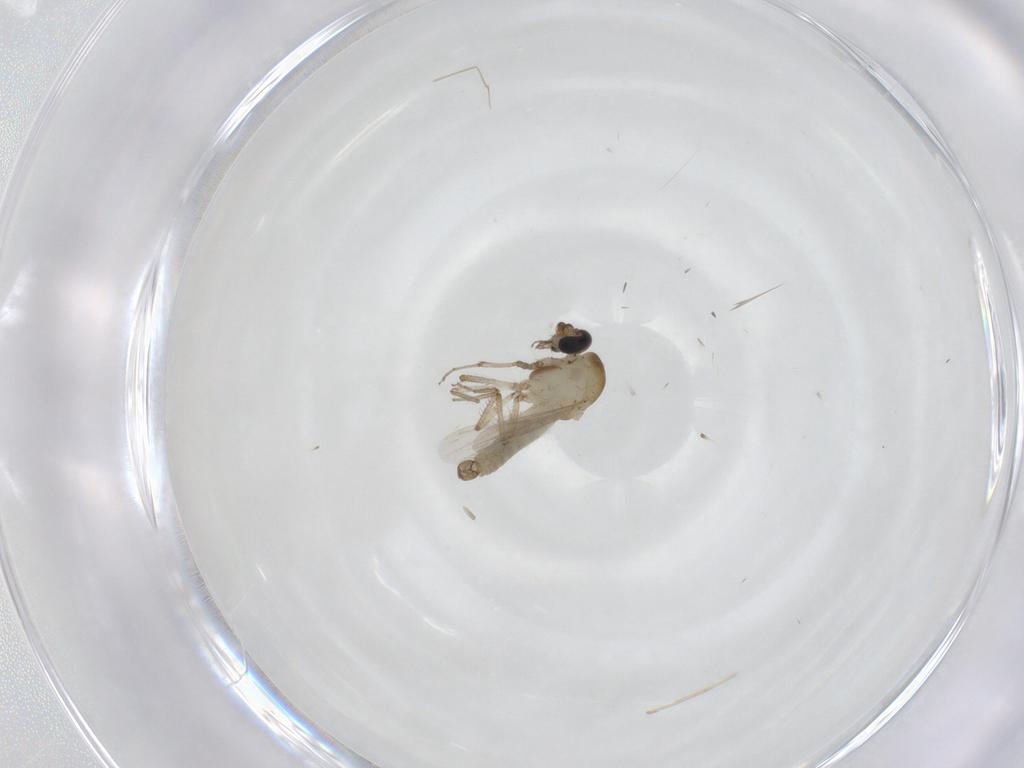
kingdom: Animalia
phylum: Arthropoda
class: Insecta
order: Diptera
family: Ceratopogonidae
